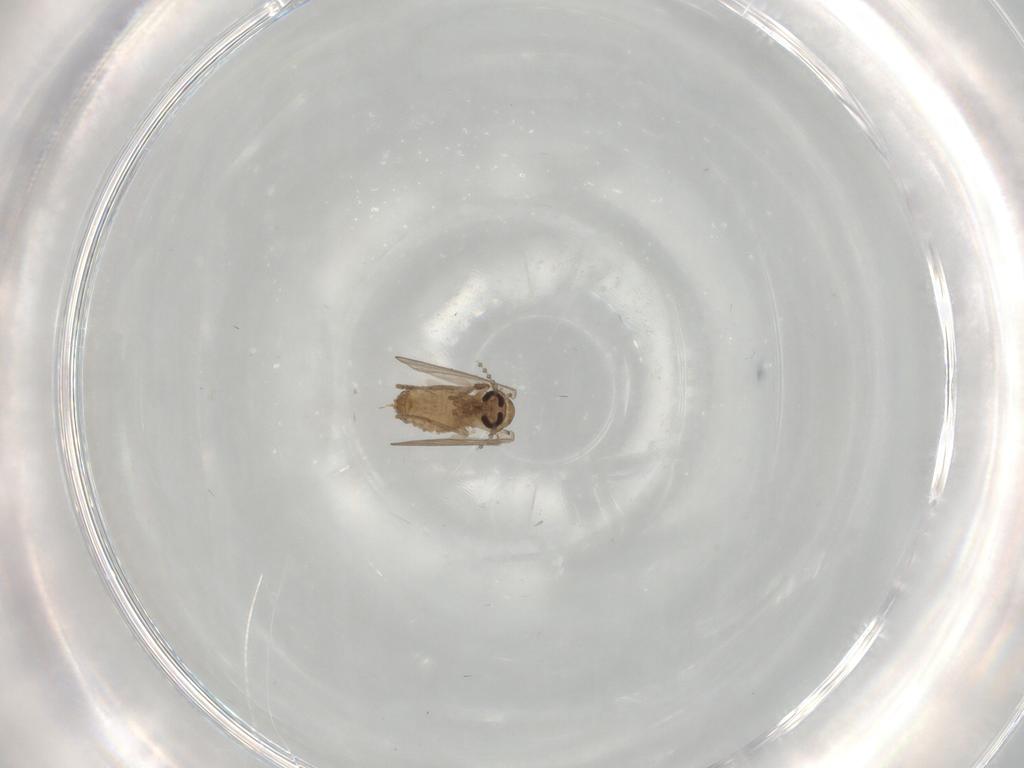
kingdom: Animalia
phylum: Arthropoda
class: Insecta
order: Diptera
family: Psychodidae
